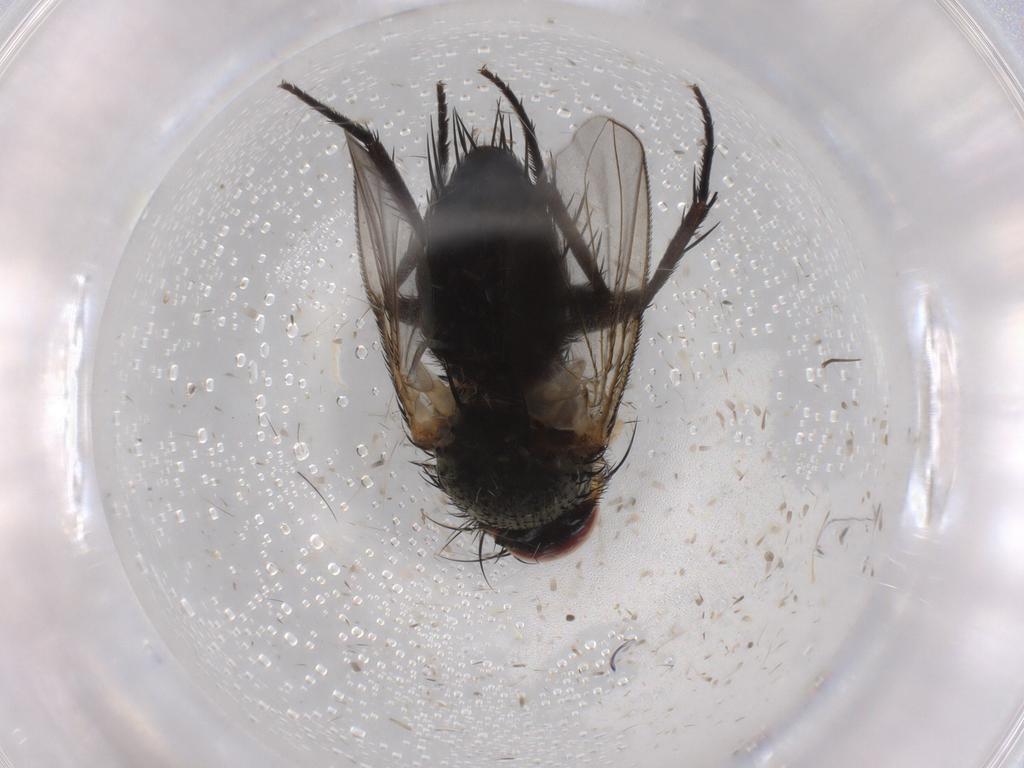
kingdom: Animalia
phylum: Arthropoda
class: Insecta
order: Diptera
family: Tachinidae
